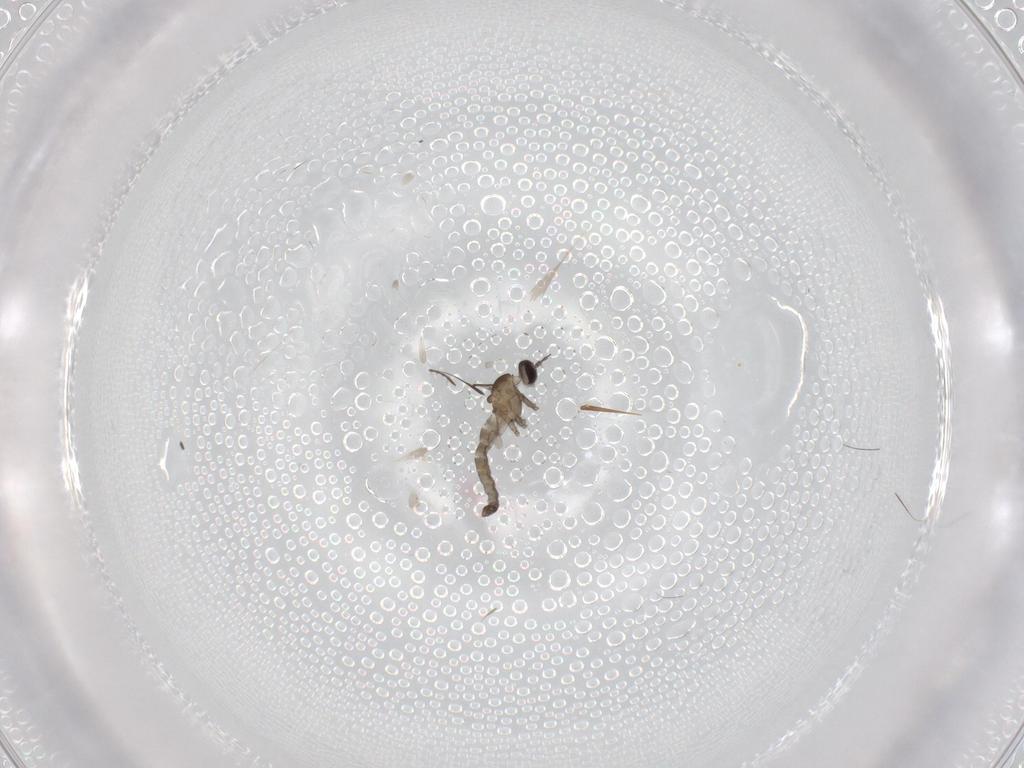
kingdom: Animalia
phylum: Arthropoda
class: Insecta
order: Diptera
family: Cecidomyiidae
